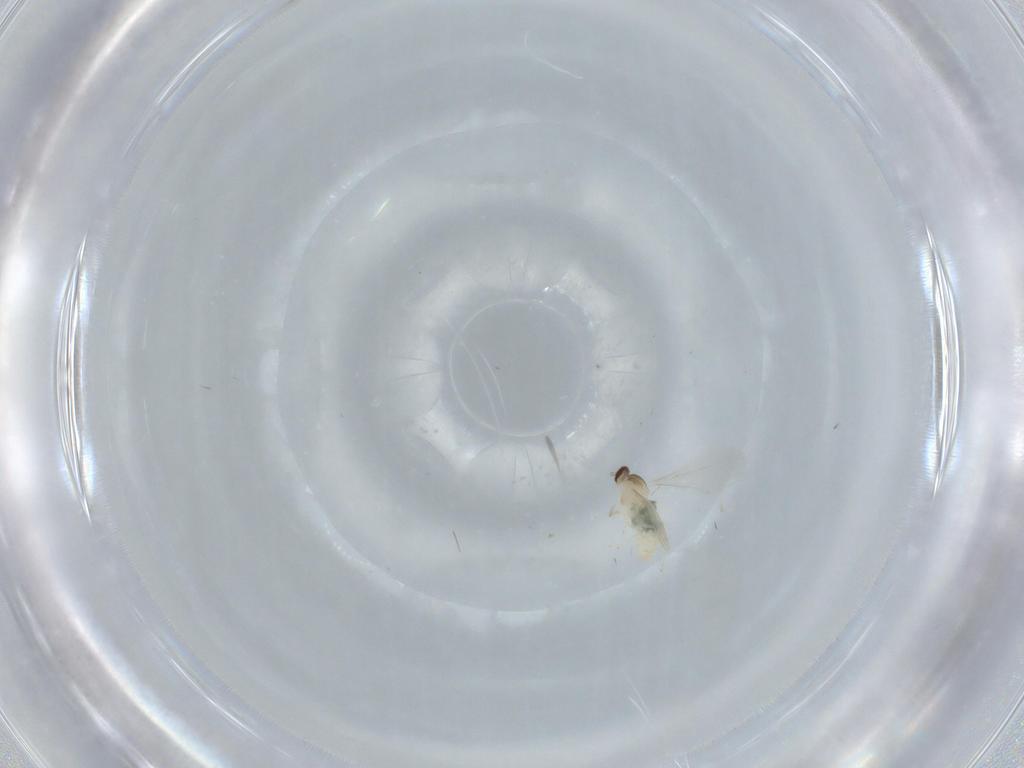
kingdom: Animalia
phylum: Arthropoda
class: Insecta
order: Diptera
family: Cecidomyiidae
